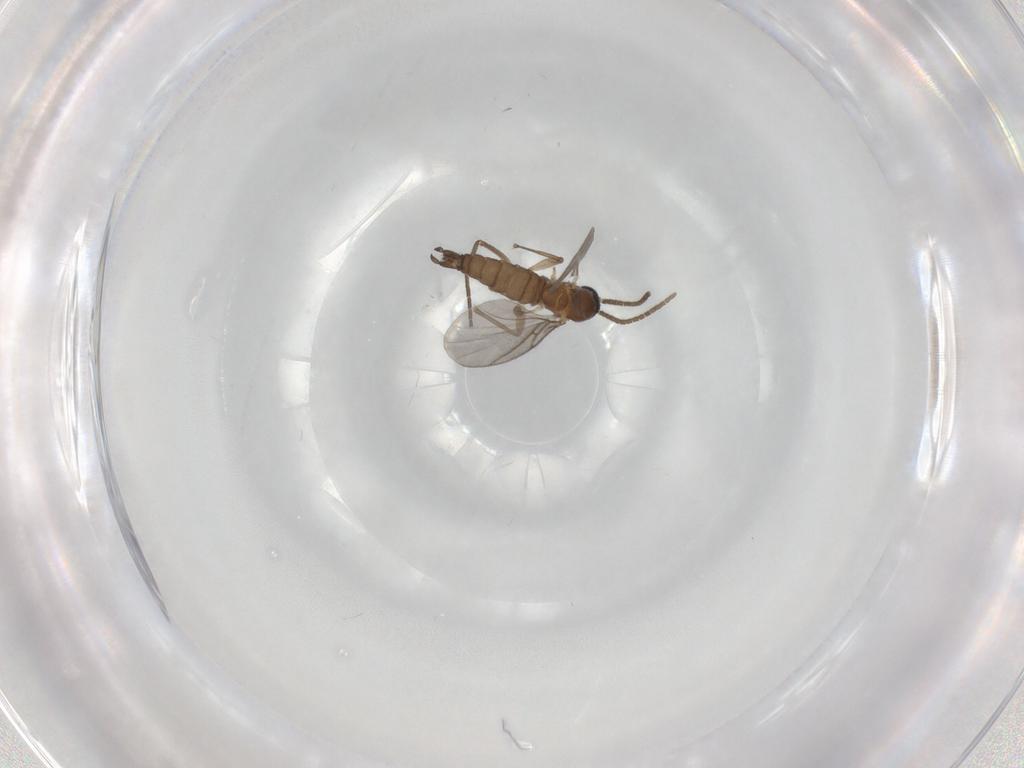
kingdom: Animalia
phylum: Arthropoda
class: Insecta
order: Diptera
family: Sciaridae
